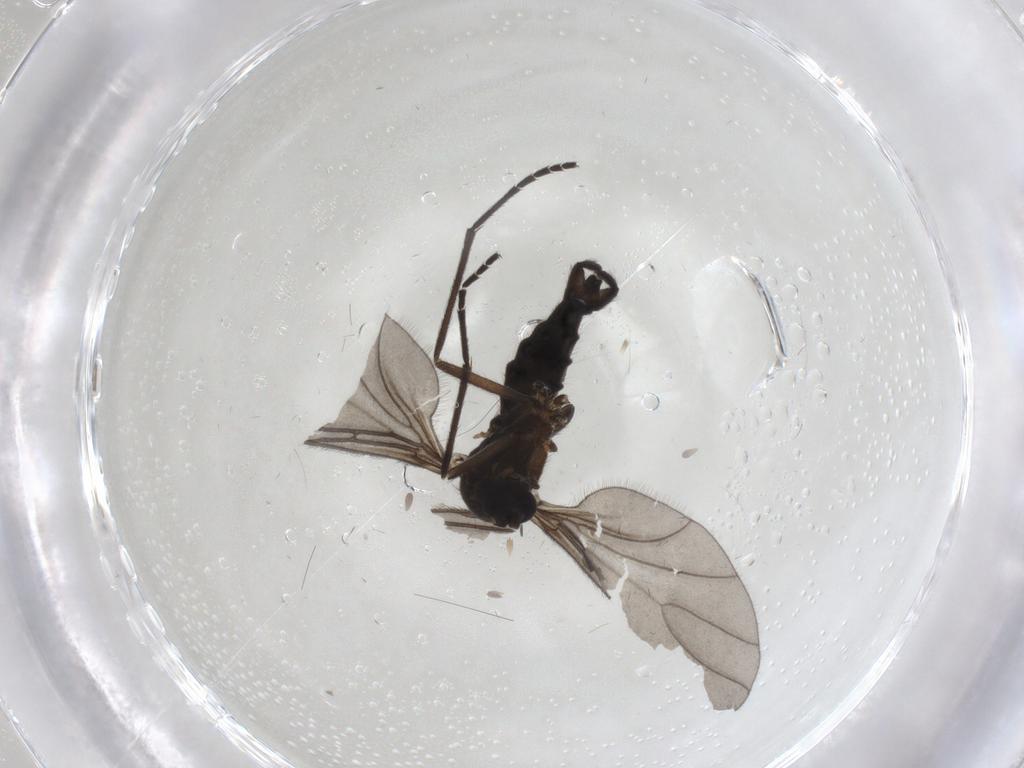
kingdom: Animalia
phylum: Arthropoda
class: Insecta
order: Diptera
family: Sciaridae
